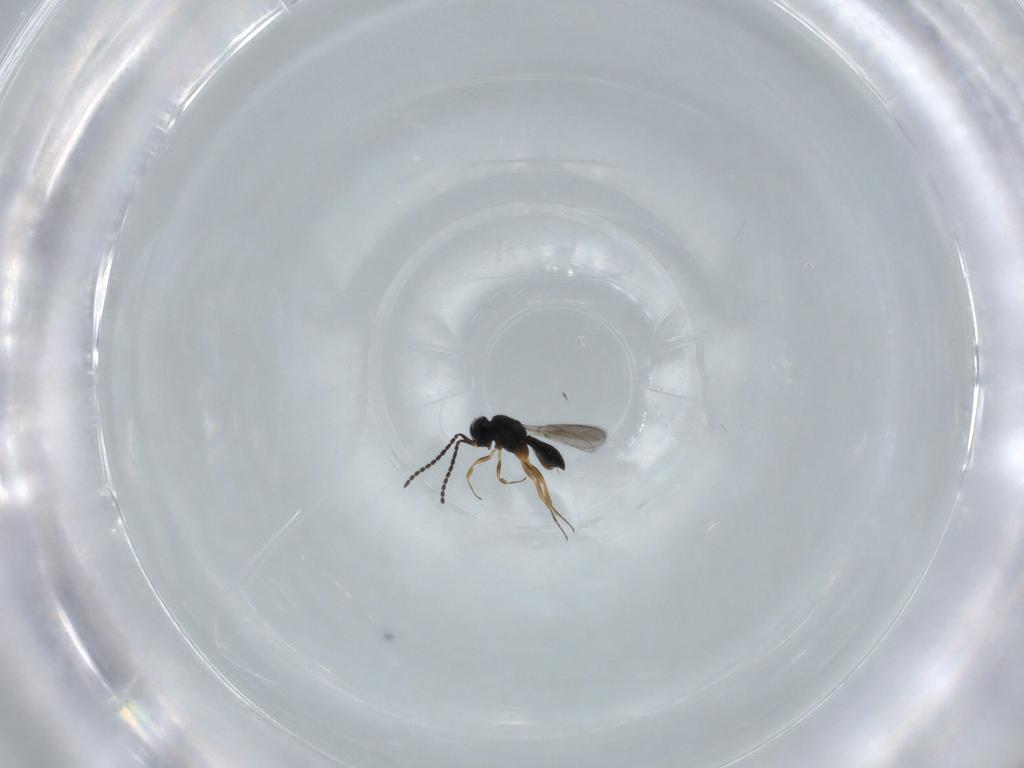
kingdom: Animalia
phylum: Arthropoda
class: Insecta
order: Hymenoptera
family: Scelionidae
